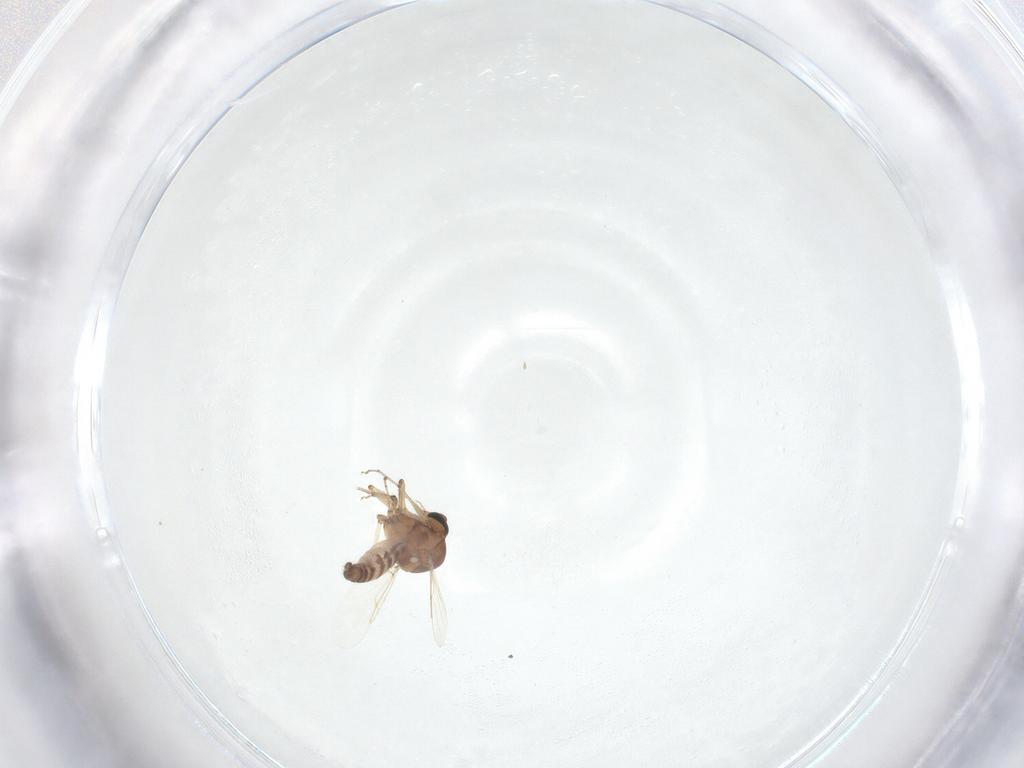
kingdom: Animalia
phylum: Arthropoda
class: Insecta
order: Diptera
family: Ceratopogonidae
